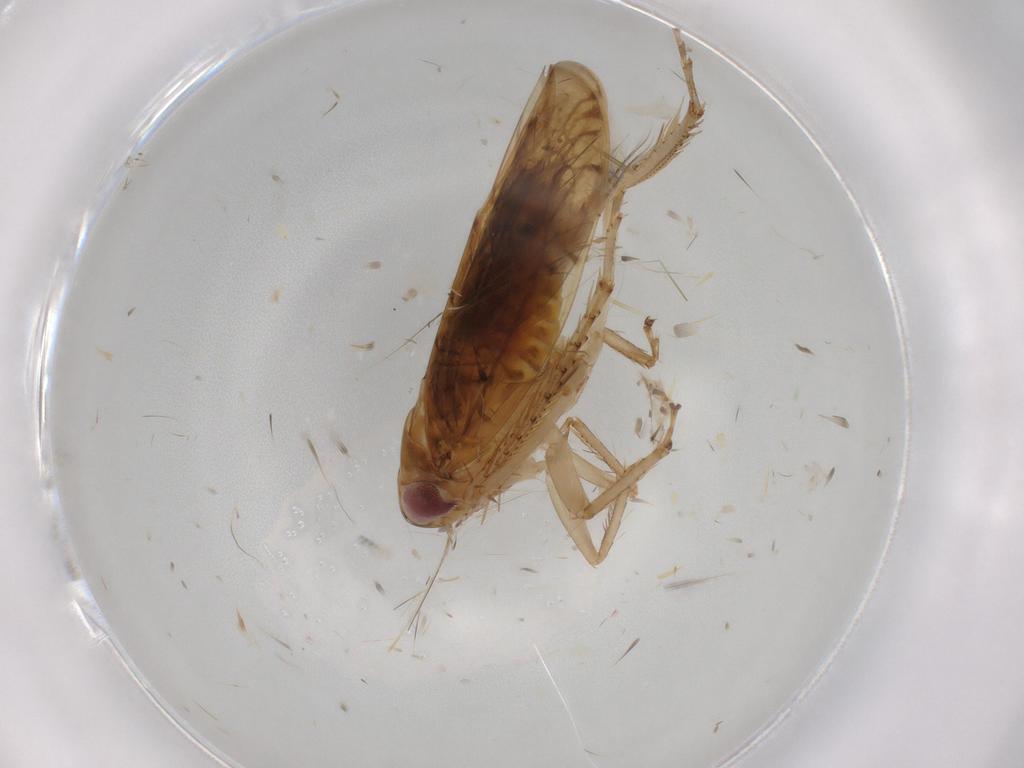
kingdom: Animalia
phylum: Arthropoda
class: Insecta
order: Hemiptera
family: Cicadellidae
